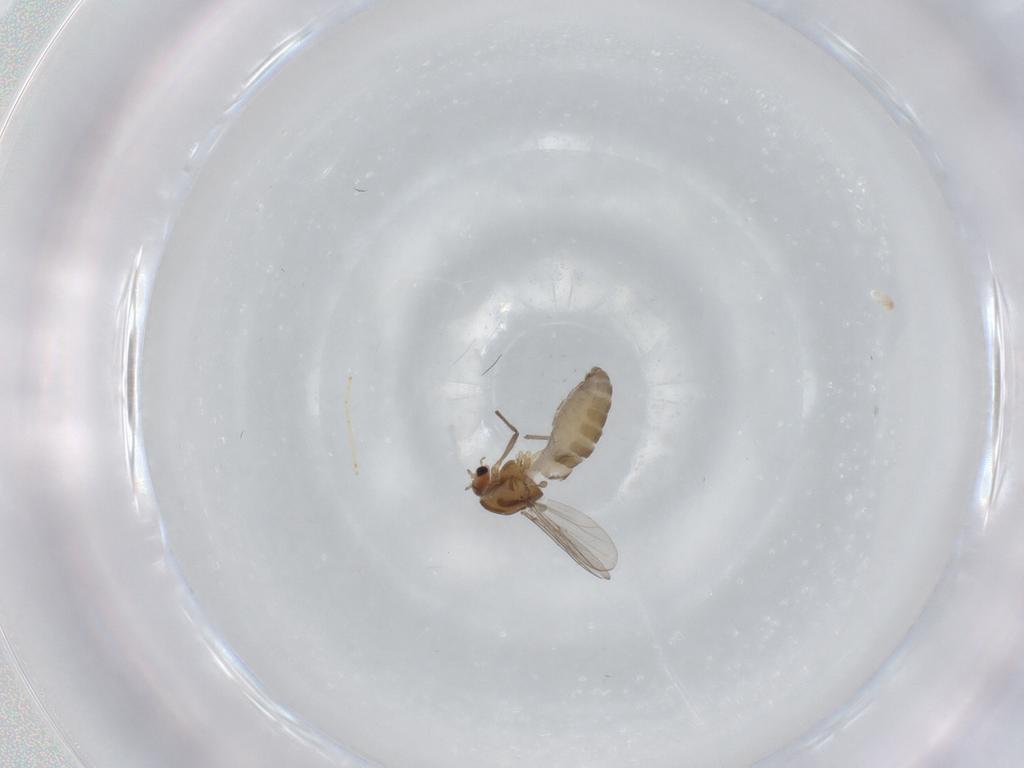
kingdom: Animalia
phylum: Arthropoda
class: Insecta
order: Diptera
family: Chironomidae
